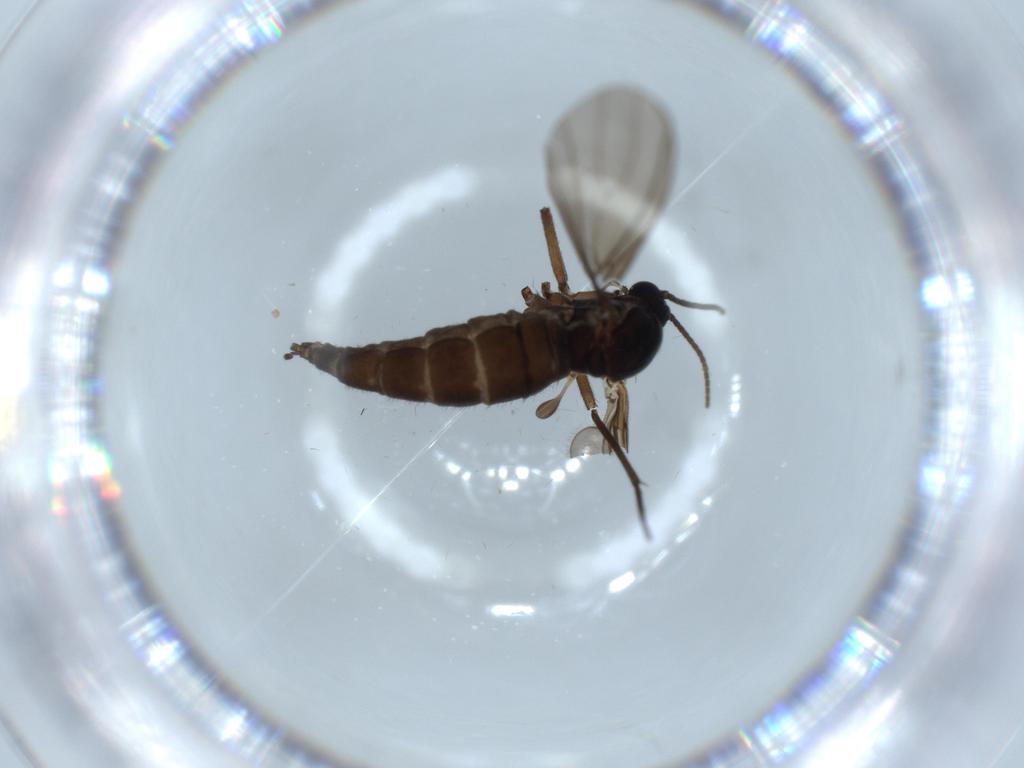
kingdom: Animalia
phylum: Arthropoda
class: Insecta
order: Diptera
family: Sciaridae
